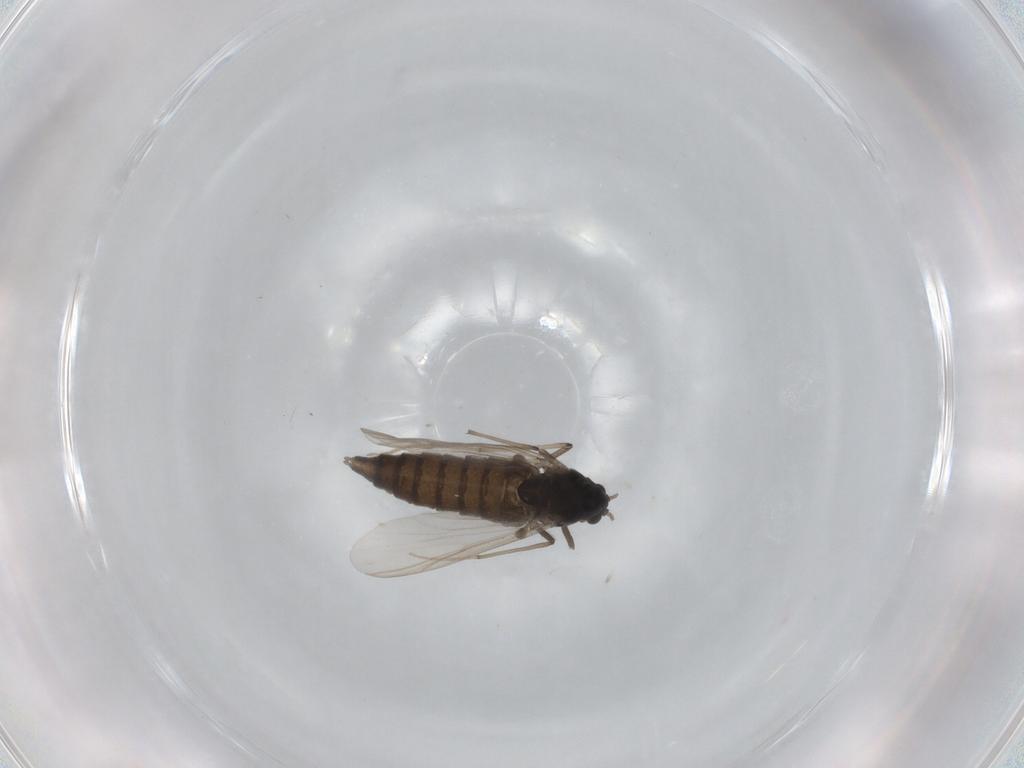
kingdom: Animalia
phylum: Arthropoda
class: Insecta
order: Diptera
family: Chironomidae
